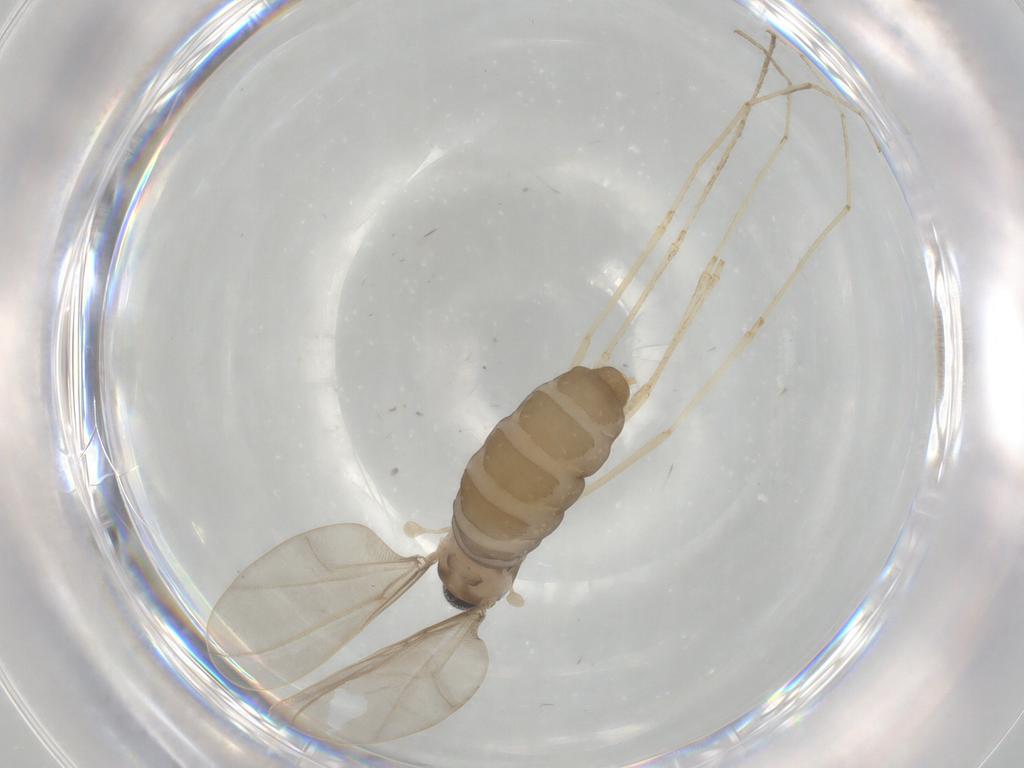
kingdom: Animalia
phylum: Arthropoda
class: Insecta
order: Diptera
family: Cecidomyiidae
